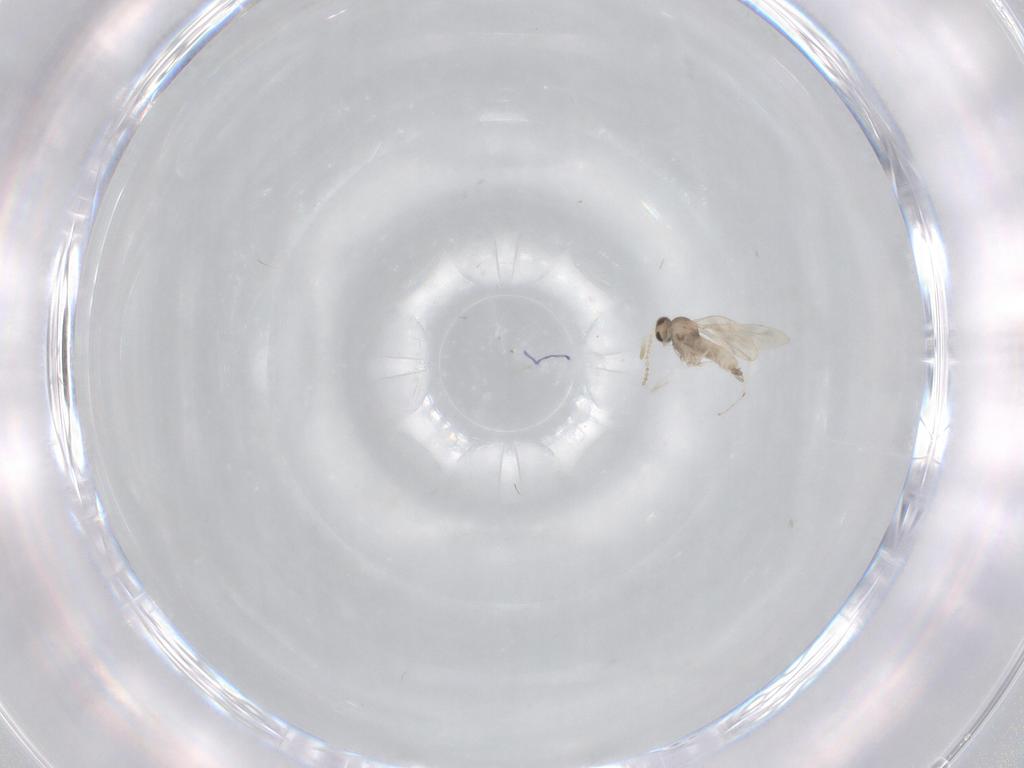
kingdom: Animalia
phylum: Arthropoda
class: Insecta
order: Diptera
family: Cecidomyiidae
